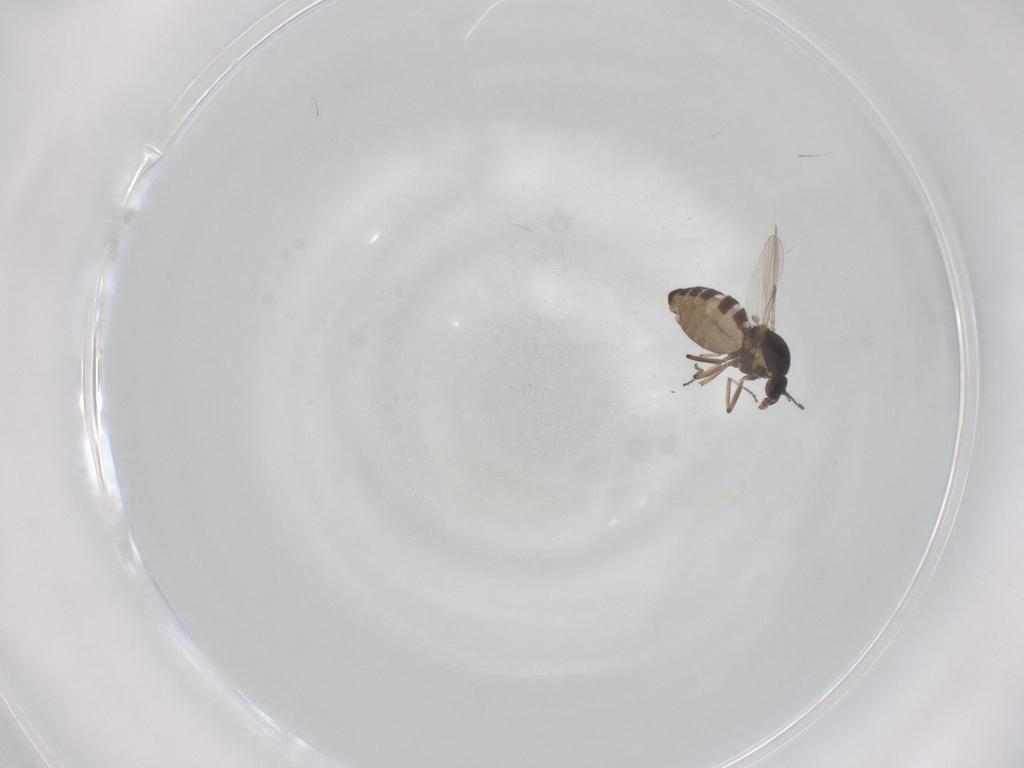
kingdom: Animalia
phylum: Arthropoda
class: Insecta
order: Diptera
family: Ceratopogonidae
